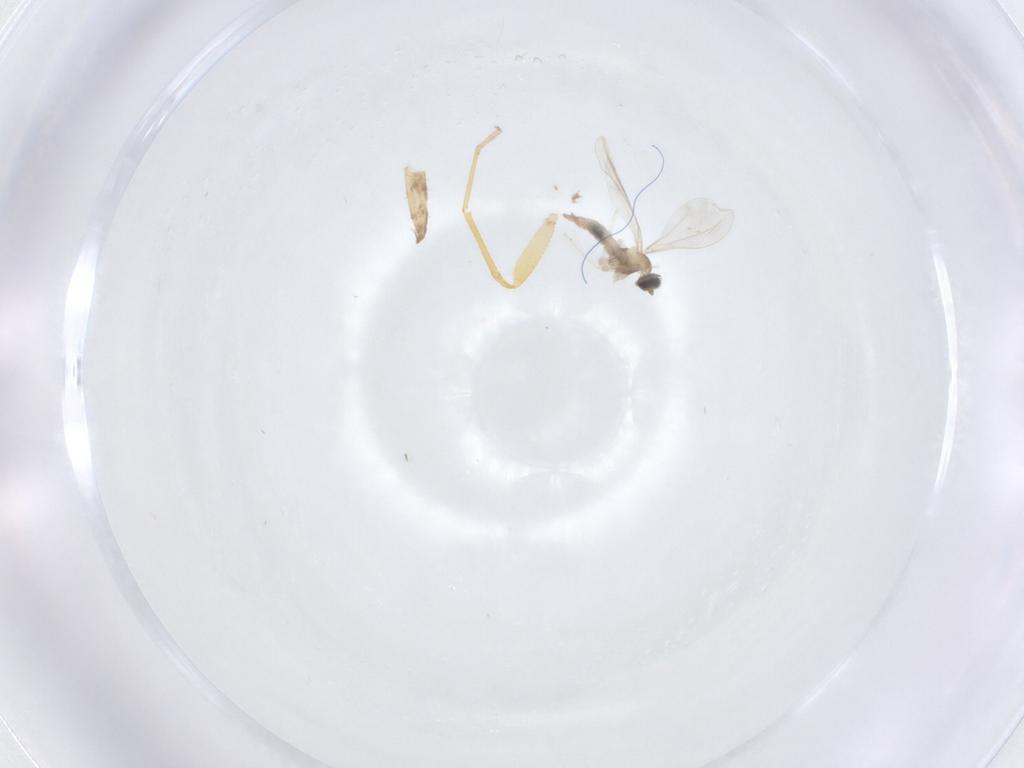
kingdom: Animalia
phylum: Arthropoda
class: Insecta
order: Diptera
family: Cecidomyiidae
